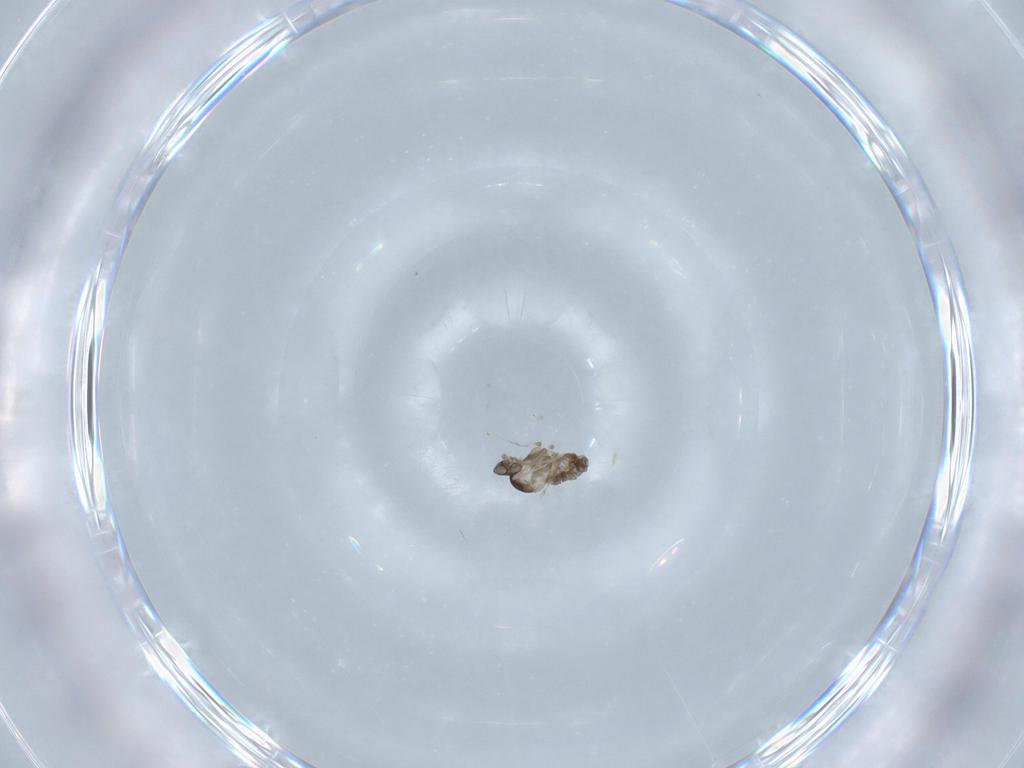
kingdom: Animalia
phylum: Arthropoda
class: Insecta
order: Diptera
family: Cecidomyiidae
